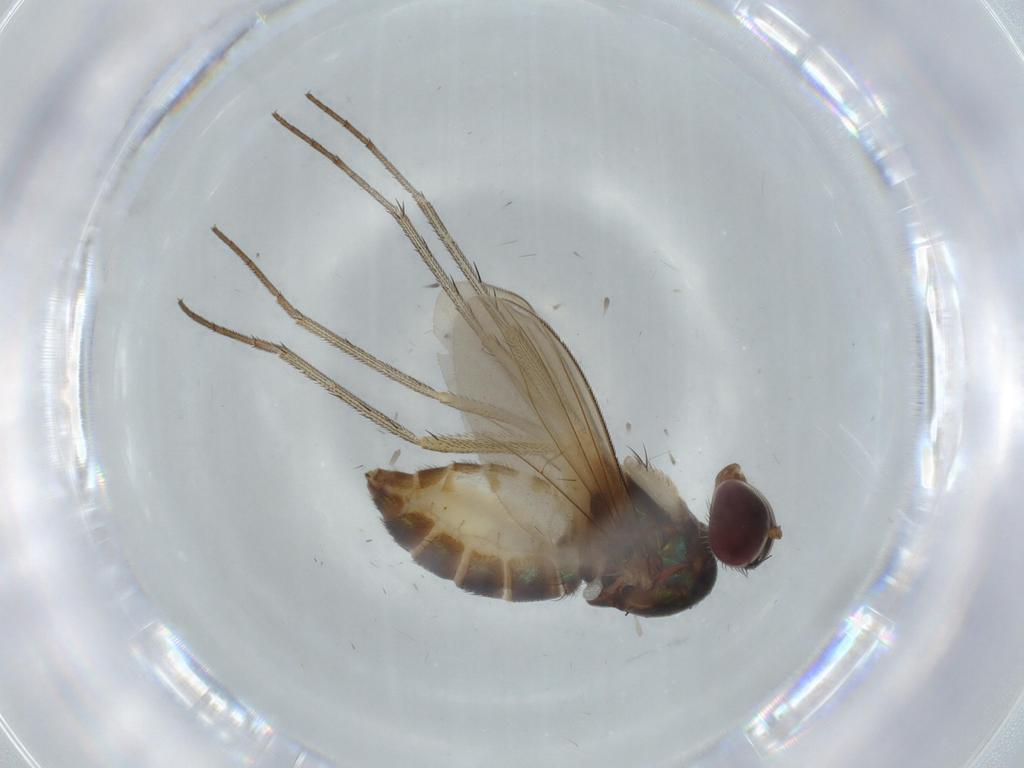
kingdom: Animalia
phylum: Arthropoda
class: Insecta
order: Diptera
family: Dolichopodidae
